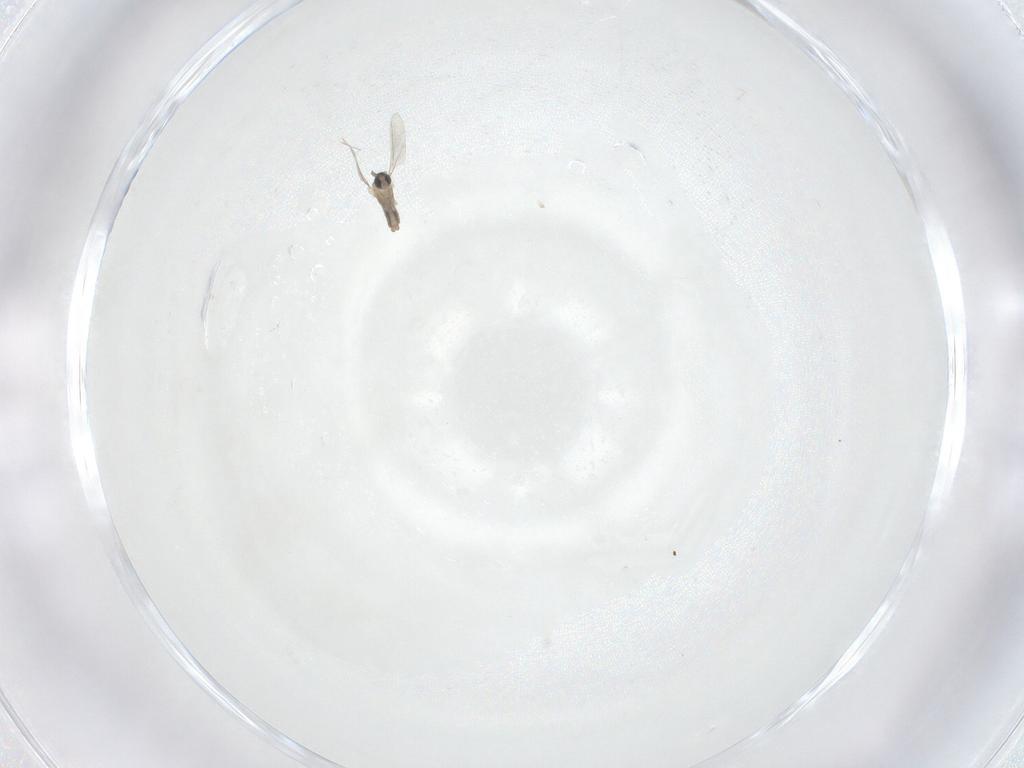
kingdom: Animalia
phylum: Arthropoda
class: Insecta
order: Diptera
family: Cecidomyiidae
